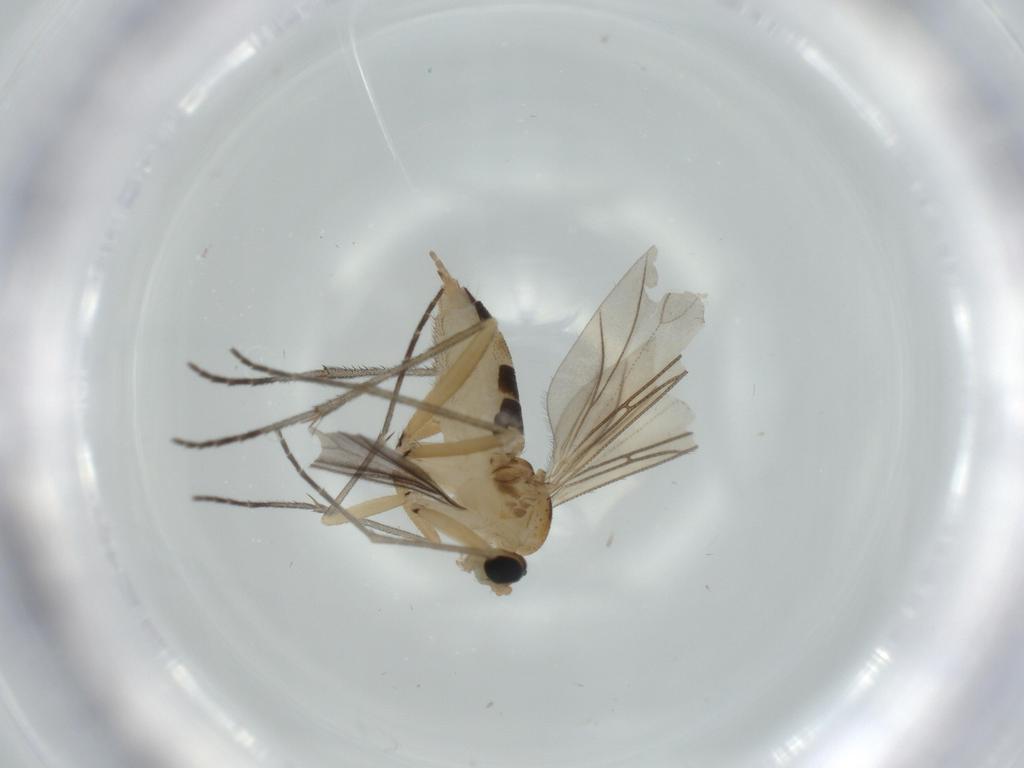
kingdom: Animalia
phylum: Arthropoda
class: Insecta
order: Diptera
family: Sciaridae
